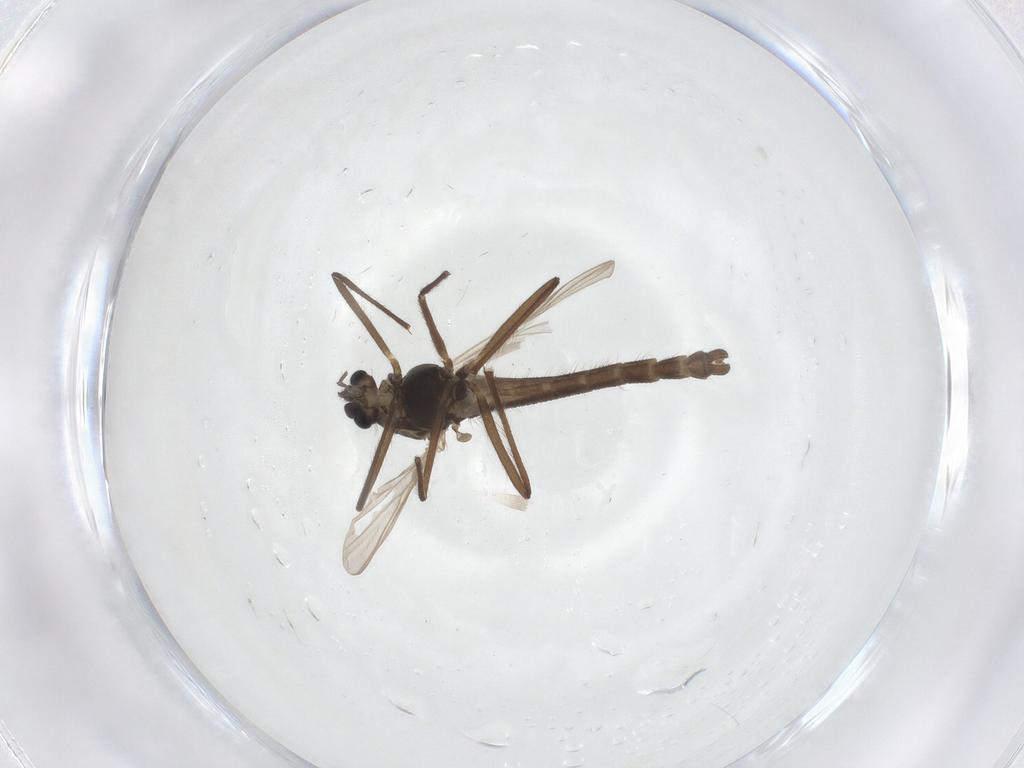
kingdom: Animalia
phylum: Arthropoda
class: Insecta
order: Diptera
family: Chironomidae
